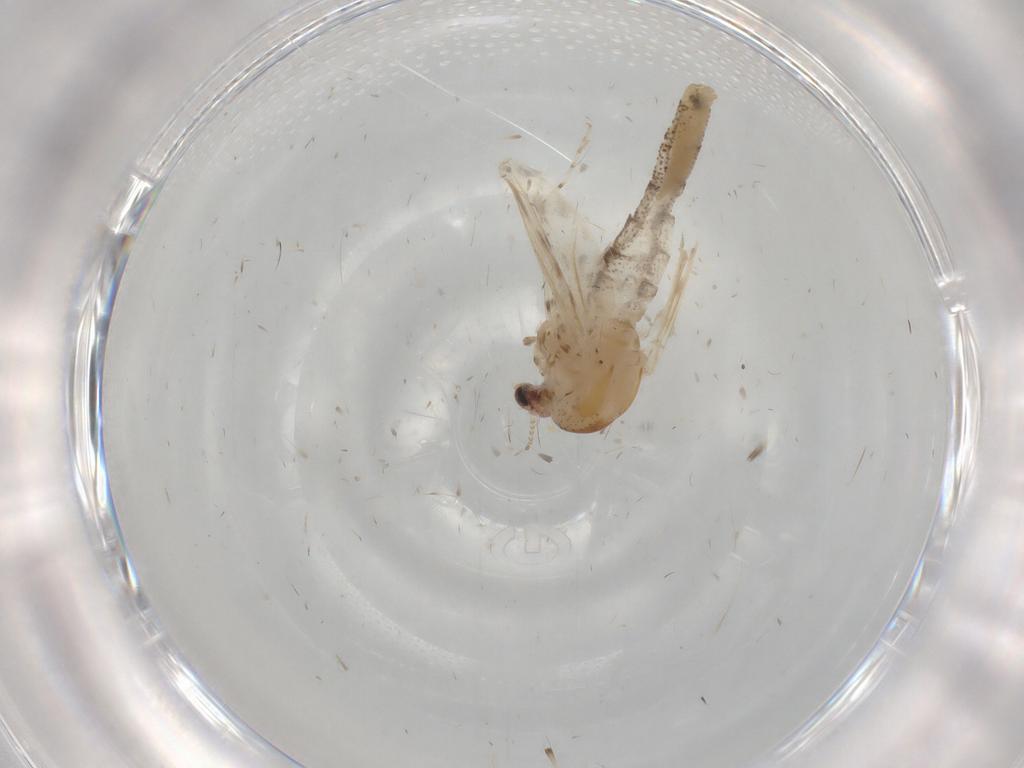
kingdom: Animalia
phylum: Arthropoda
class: Insecta
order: Diptera
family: Chaoboridae
